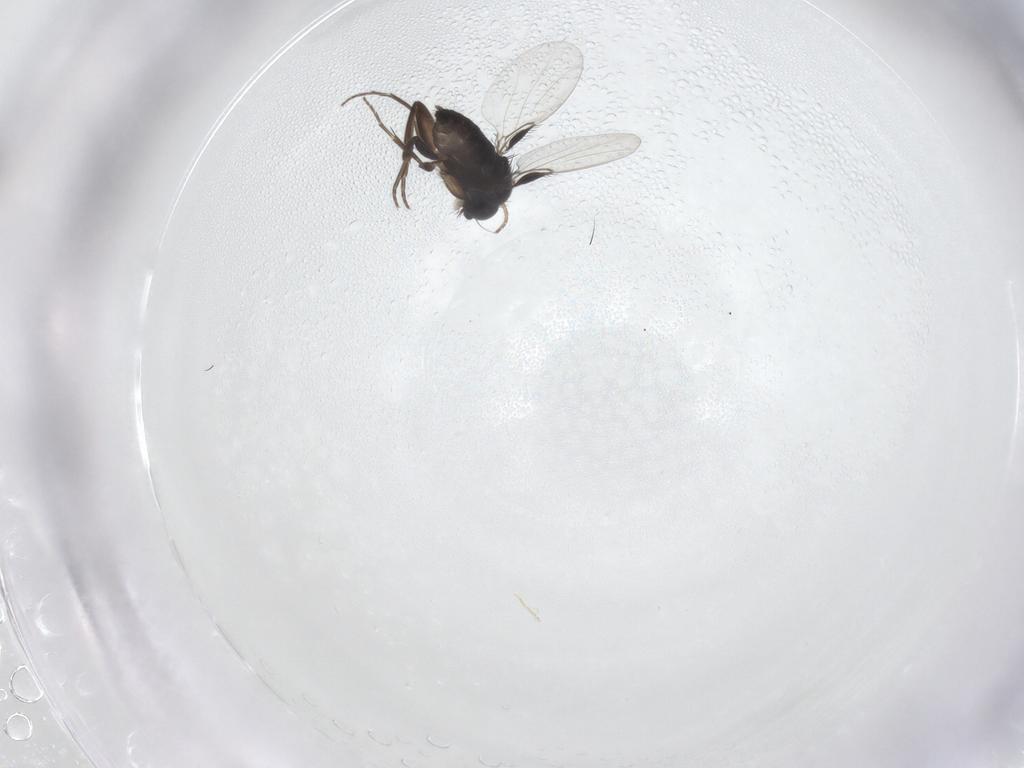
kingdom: Animalia
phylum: Arthropoda
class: Insecta
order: Diptera
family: Phoridae
